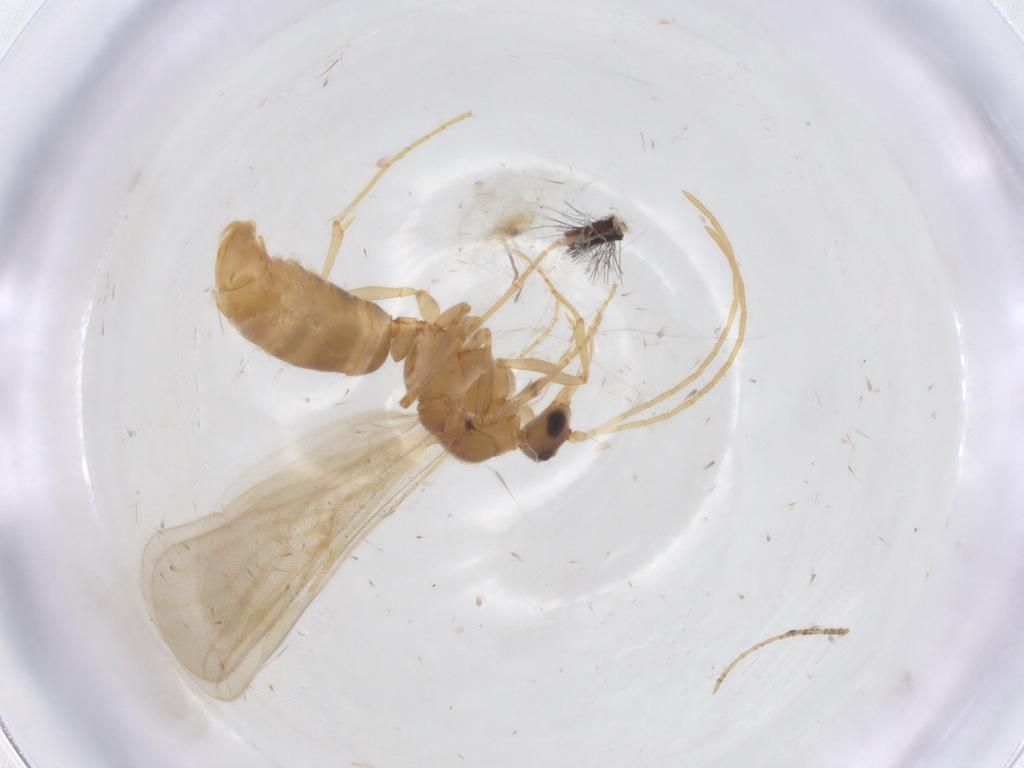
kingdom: Animalia
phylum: Arthropoda
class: Insecta
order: Hymenoptera
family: Formicidae
